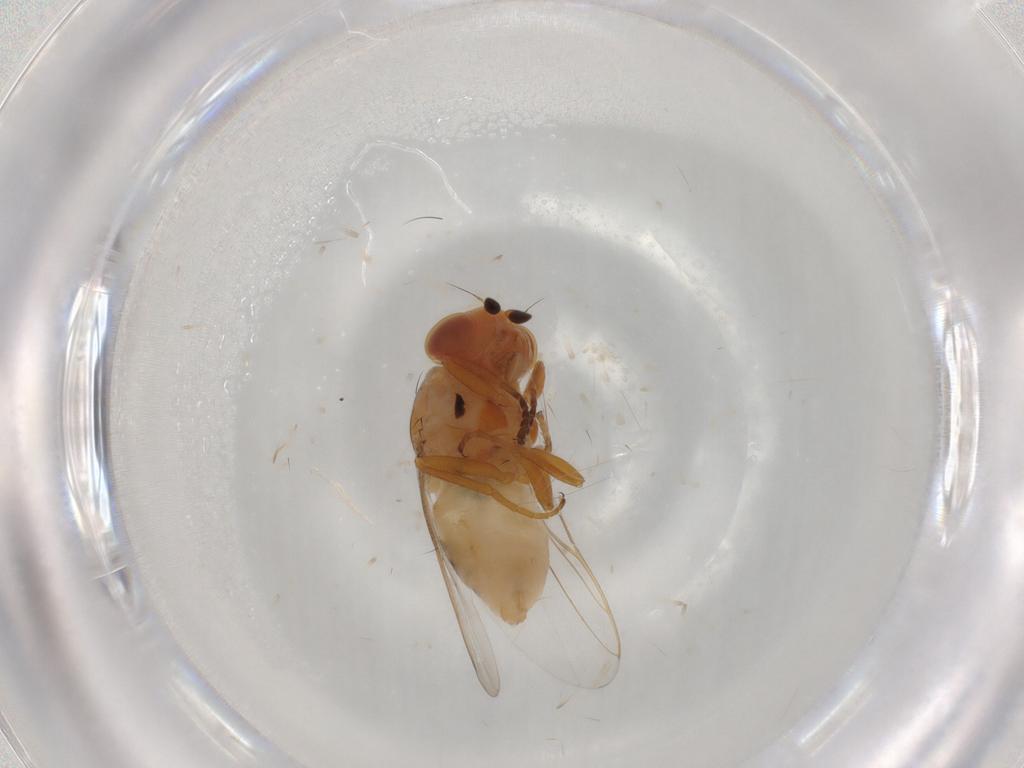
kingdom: Animalia
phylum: Arthropoda
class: Insecta
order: Diptera
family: Chloropidae
